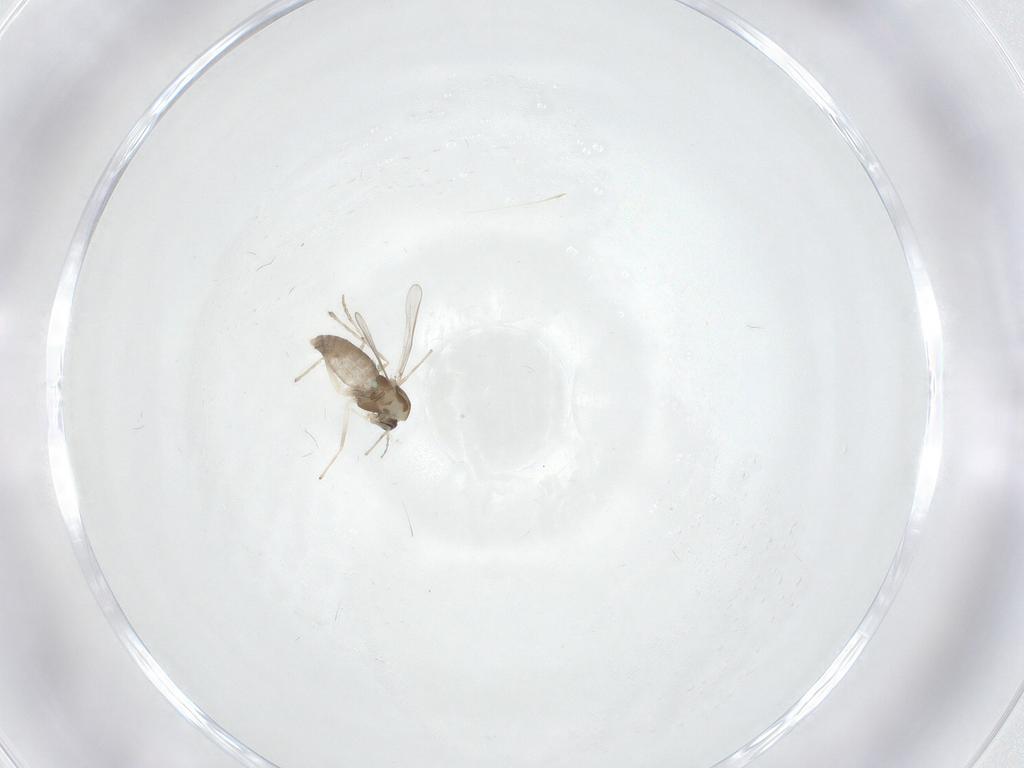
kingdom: Animalia
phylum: Arthropoda
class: Insecta
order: Diptera
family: Chironomidae
